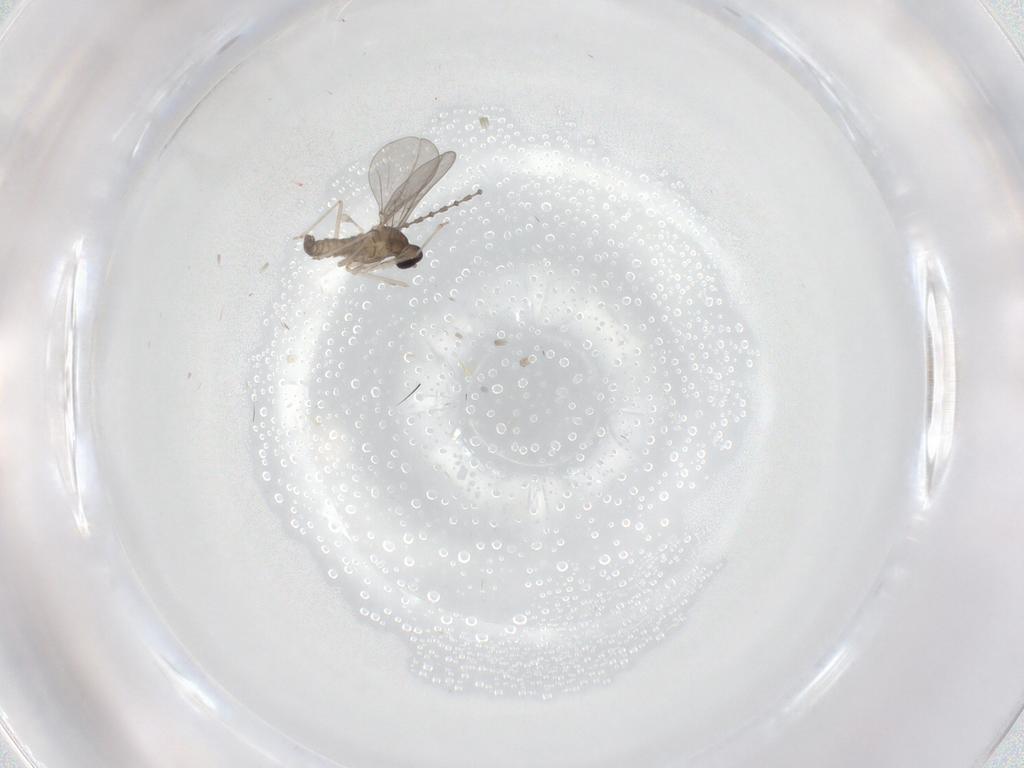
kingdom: Animalia
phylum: Arthropoda
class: Insecta
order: Diptera
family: Cecidomyiidae
